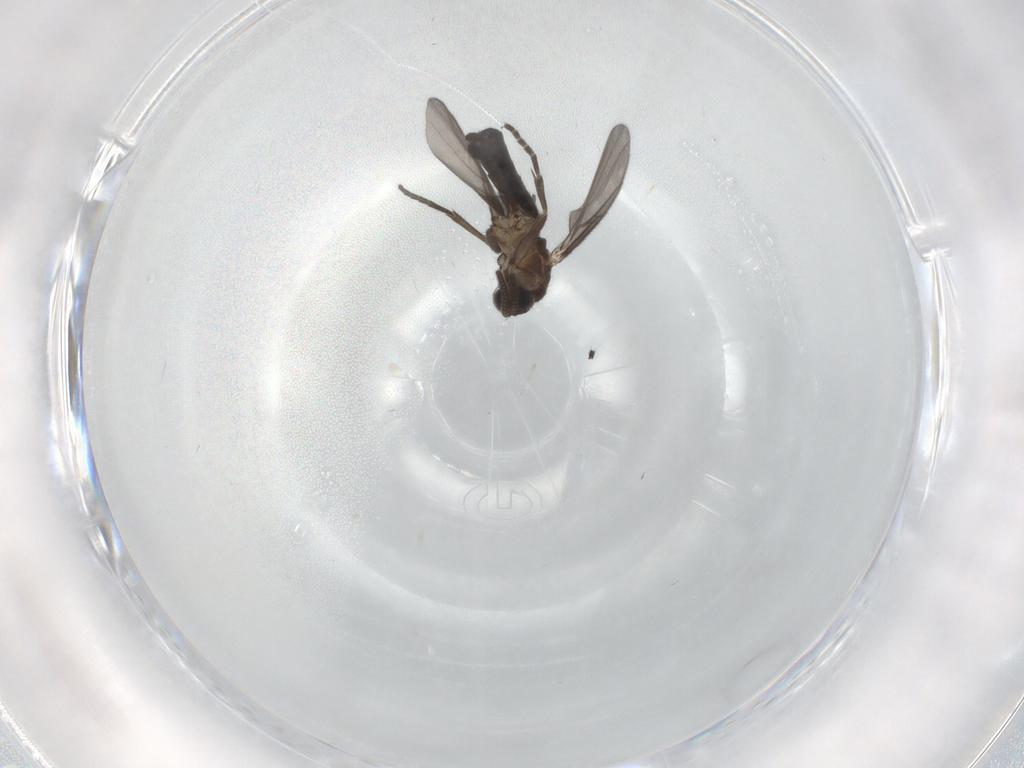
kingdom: Animalia
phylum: Arthropoda
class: Insecta
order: Diptera
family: Mycetophilidae
